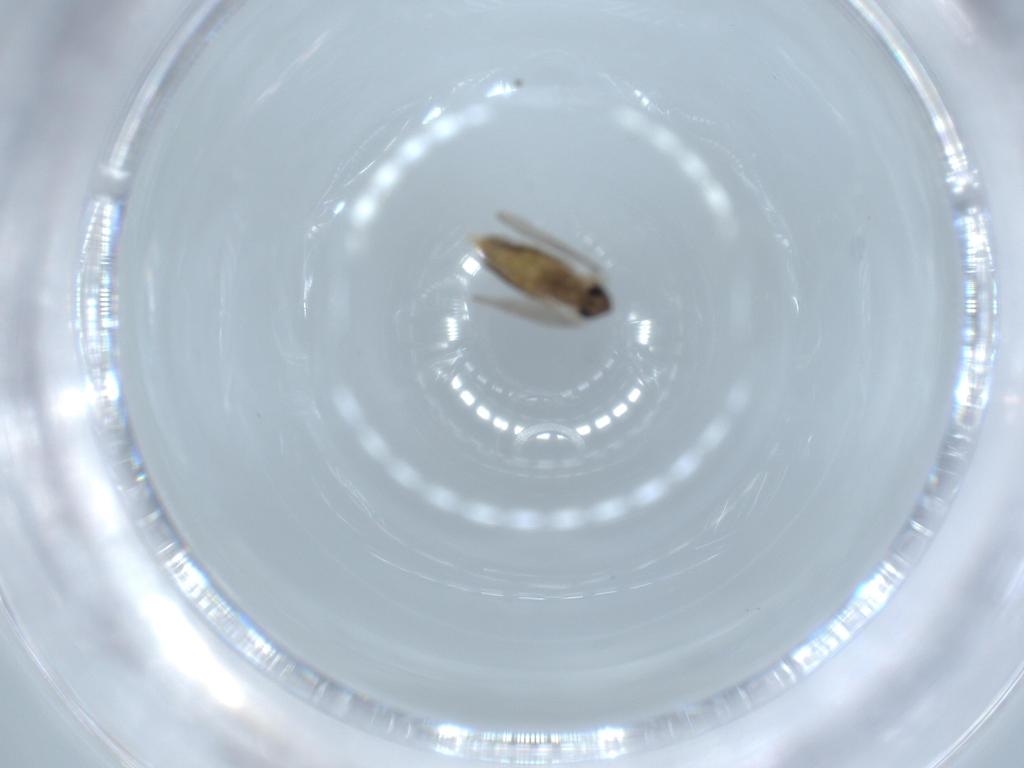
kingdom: Animalia
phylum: Arthropoda
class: Insecta
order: Diptera
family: Psychodidae
